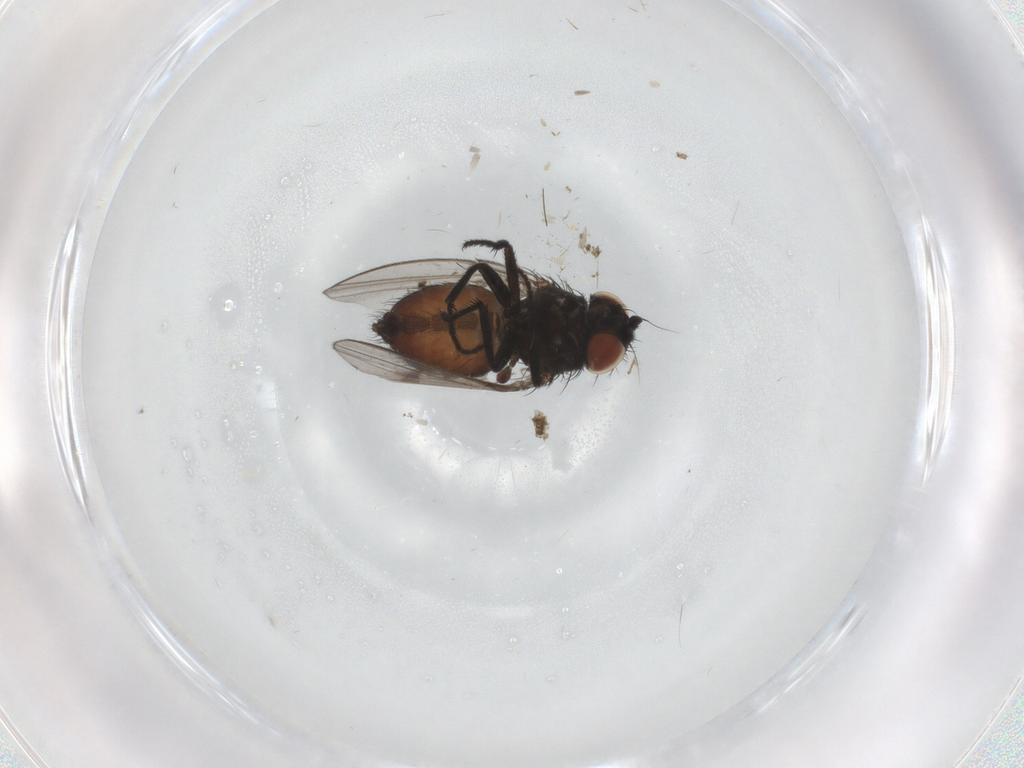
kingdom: Animalia
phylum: Arthropoda
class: Insecta
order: Diptera
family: Milichiidae
